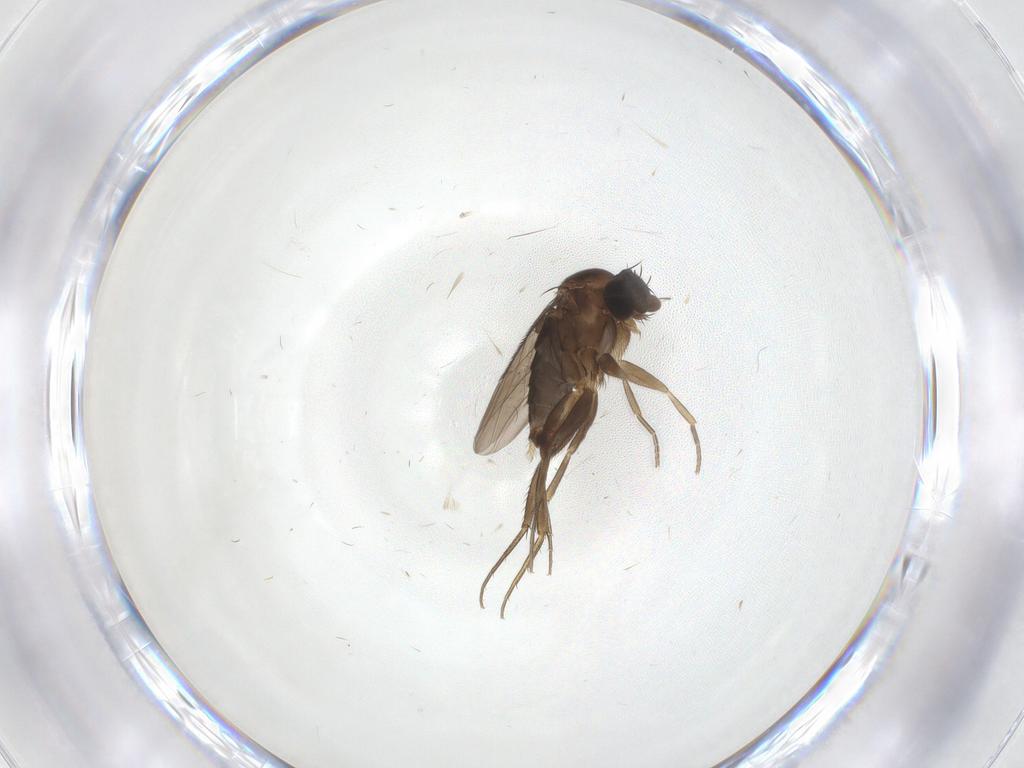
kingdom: Animalia
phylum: Arthropoda
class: Insecta
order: Diptera
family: Phoridae
